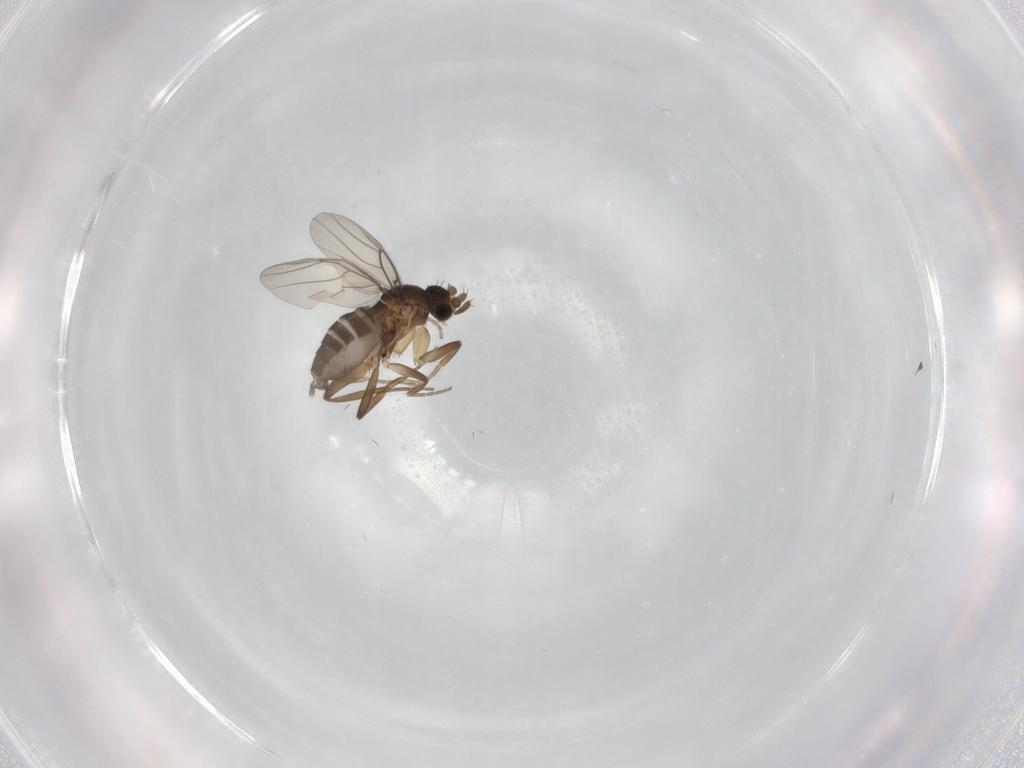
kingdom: Animalia
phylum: Arthropoda
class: Insecta
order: Diptera
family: Phoridae
